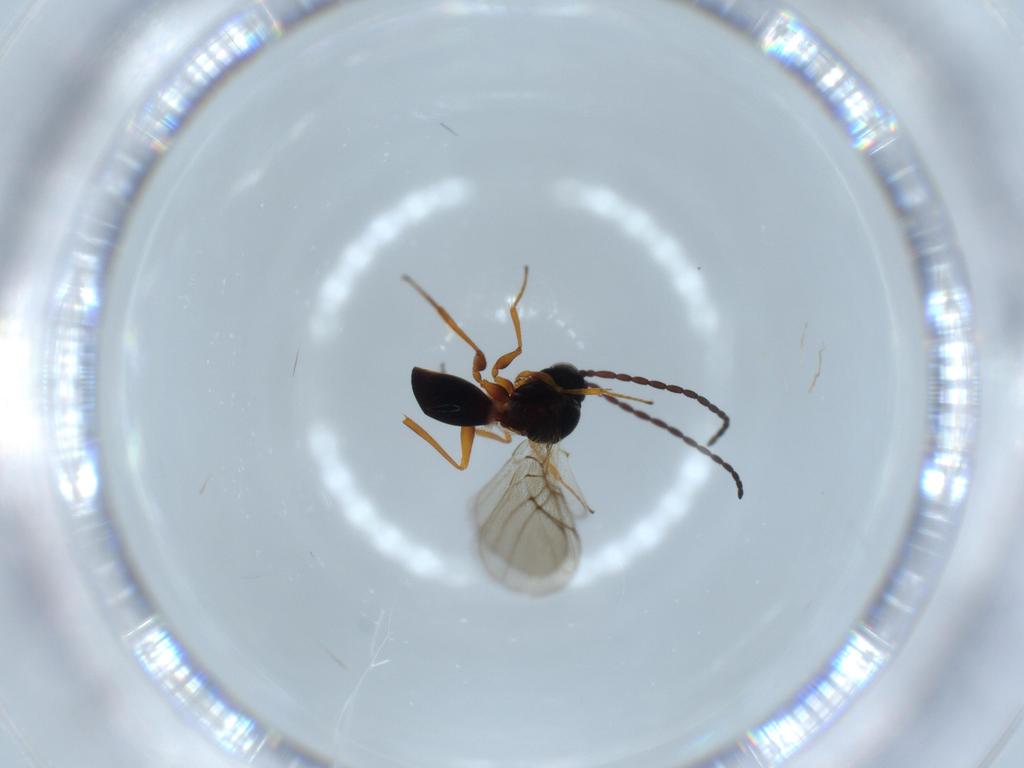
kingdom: Animalia
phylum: Arthropoda
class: Insecta
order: Hymenoptera
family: Figitidae
